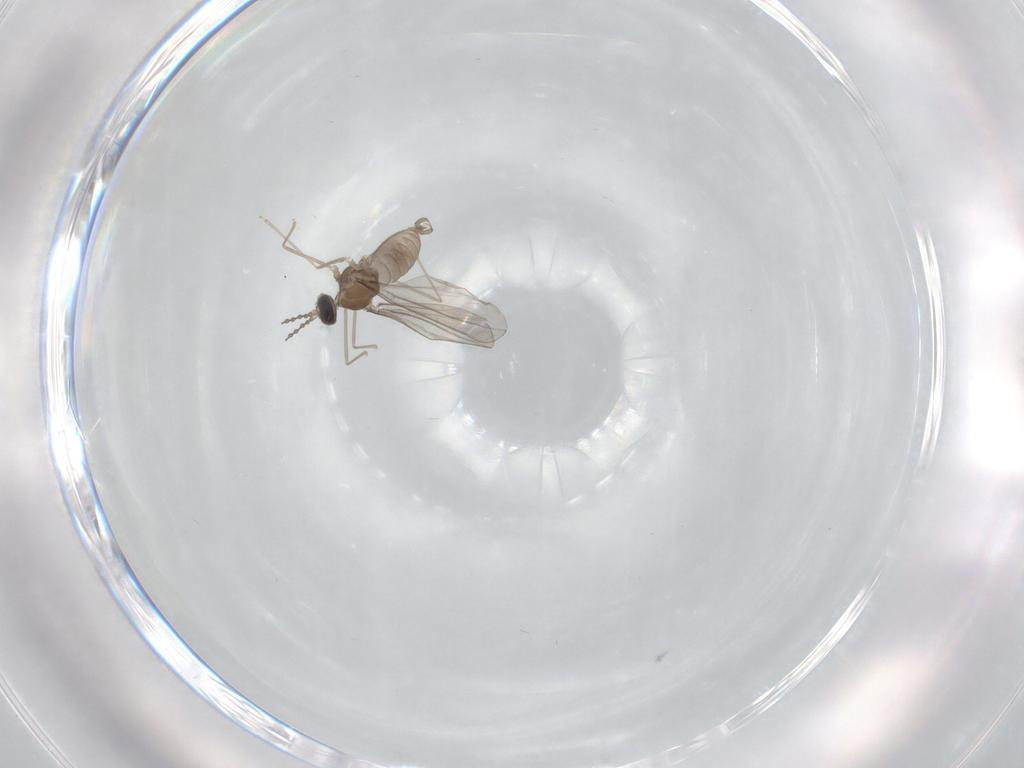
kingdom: Animalia
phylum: Arthropoda
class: Insecta
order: Diptera
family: Cecidomyiidae
